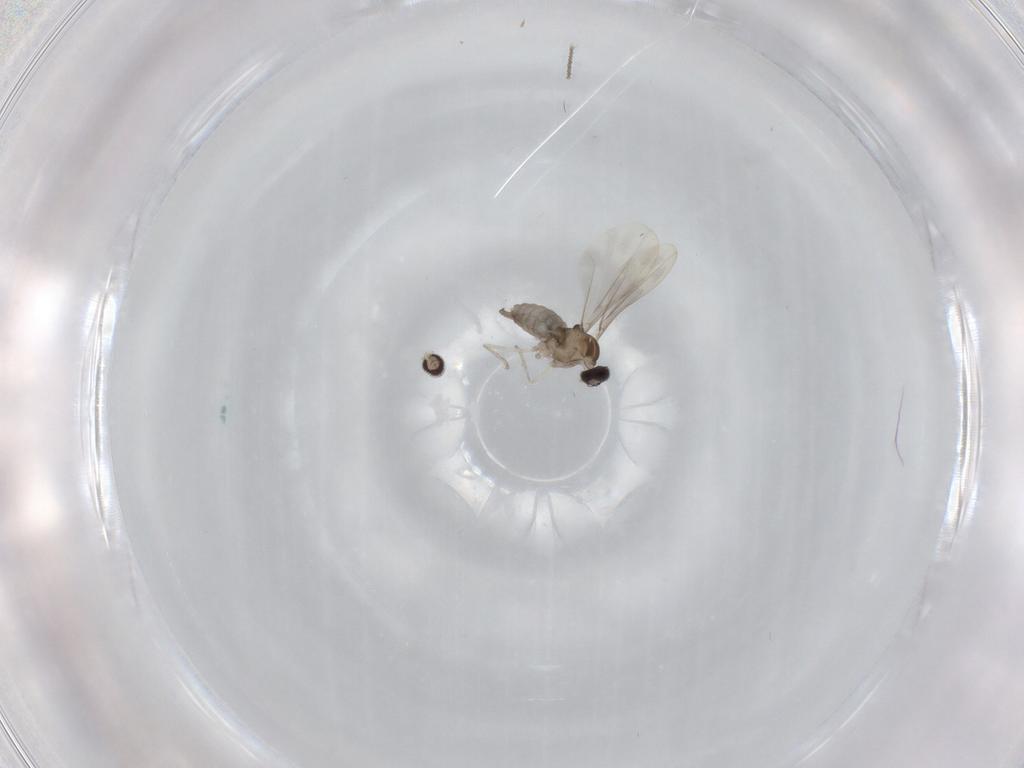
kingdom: Animalia
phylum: Arthropoda
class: Insecta
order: Diptera
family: Cecidomyiidae
